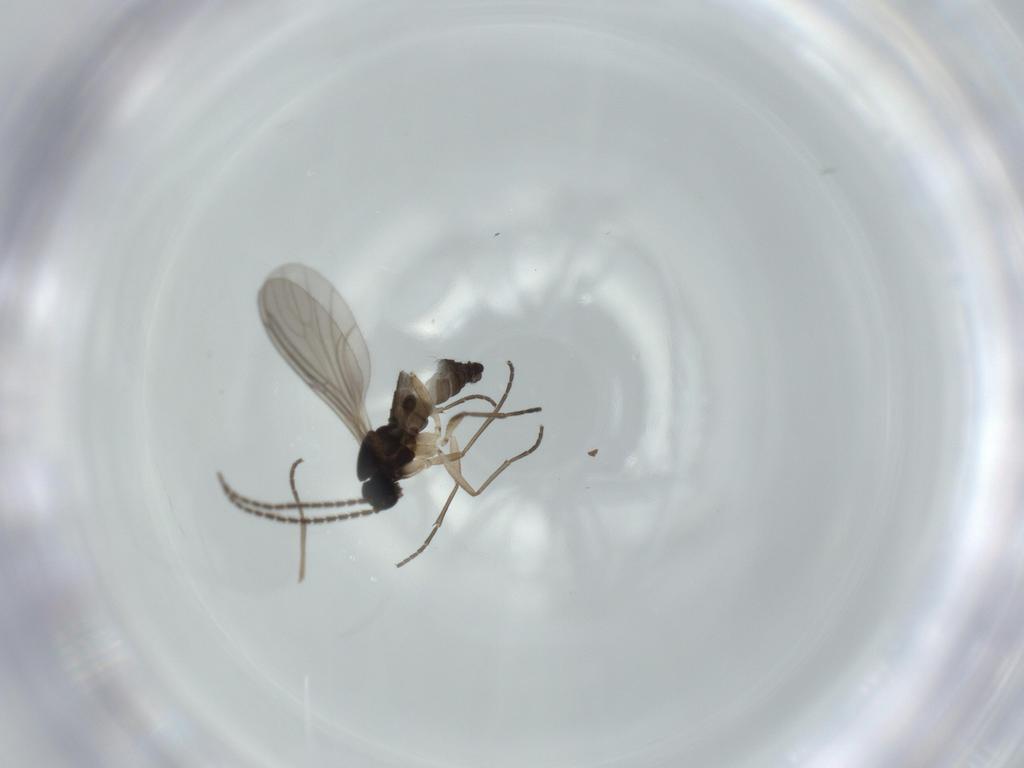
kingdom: Animalia
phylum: Arthropoda
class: Insecta
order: Diptera
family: Sciaridae
